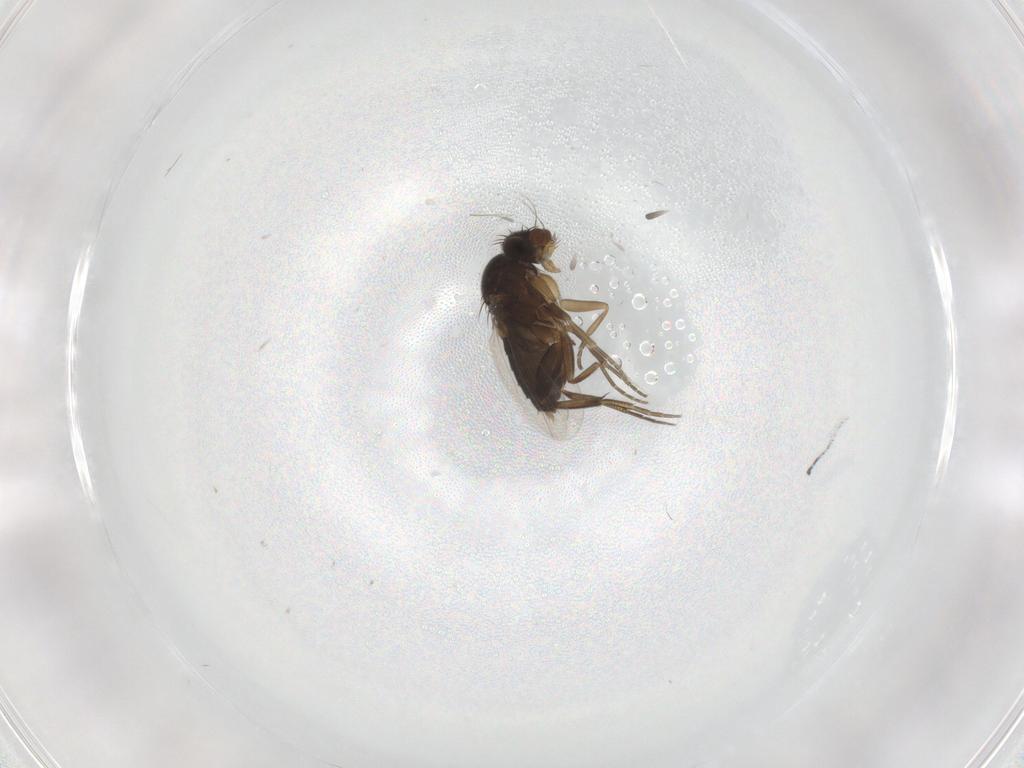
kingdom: Animalia
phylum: Arthropoda
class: Insecta
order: Diptera
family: Phoridae
